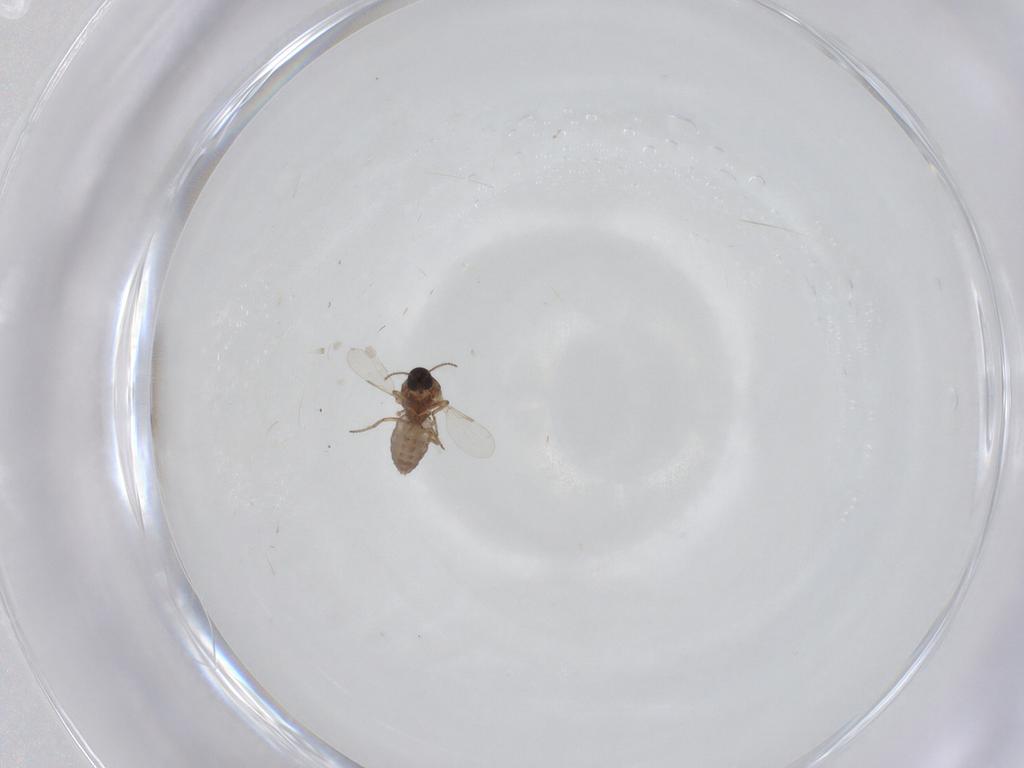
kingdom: Animalia
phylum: Arthropoda
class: Insecta
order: Diptera
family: Ceratopogonidae
